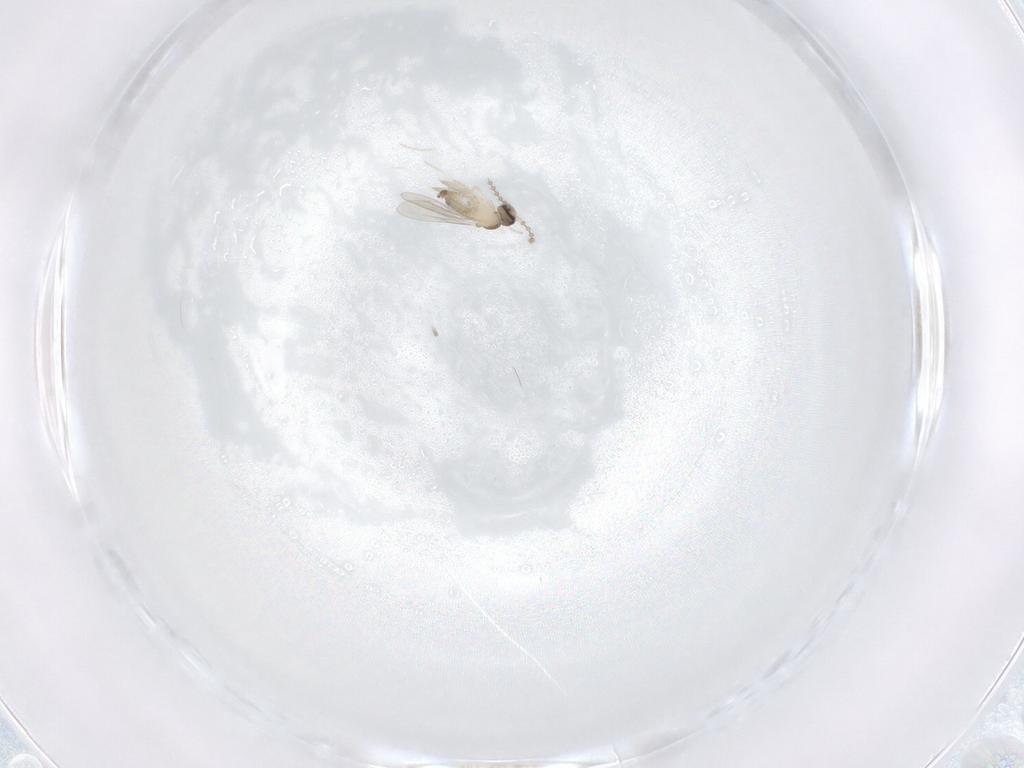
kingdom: Animalia
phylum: Arthropoda
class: Insecta
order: Diptera
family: Cecidomyiidae
